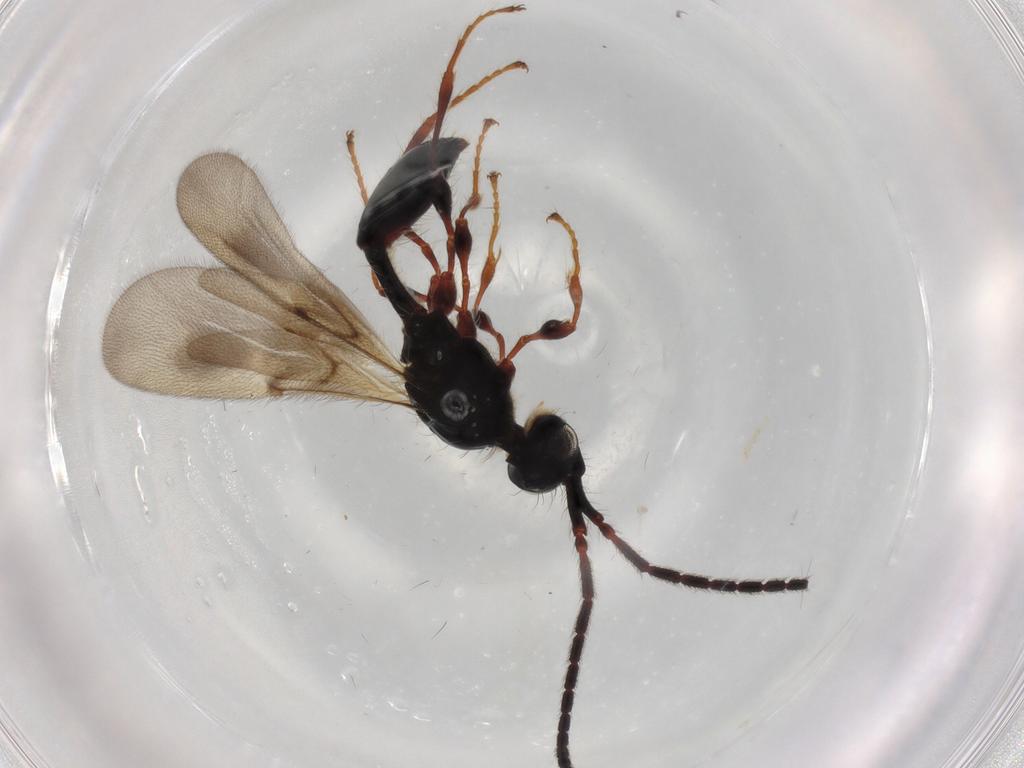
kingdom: Animalia
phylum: Arthropoda
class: Insecta
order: Hymenoptera
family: Diapriidae
